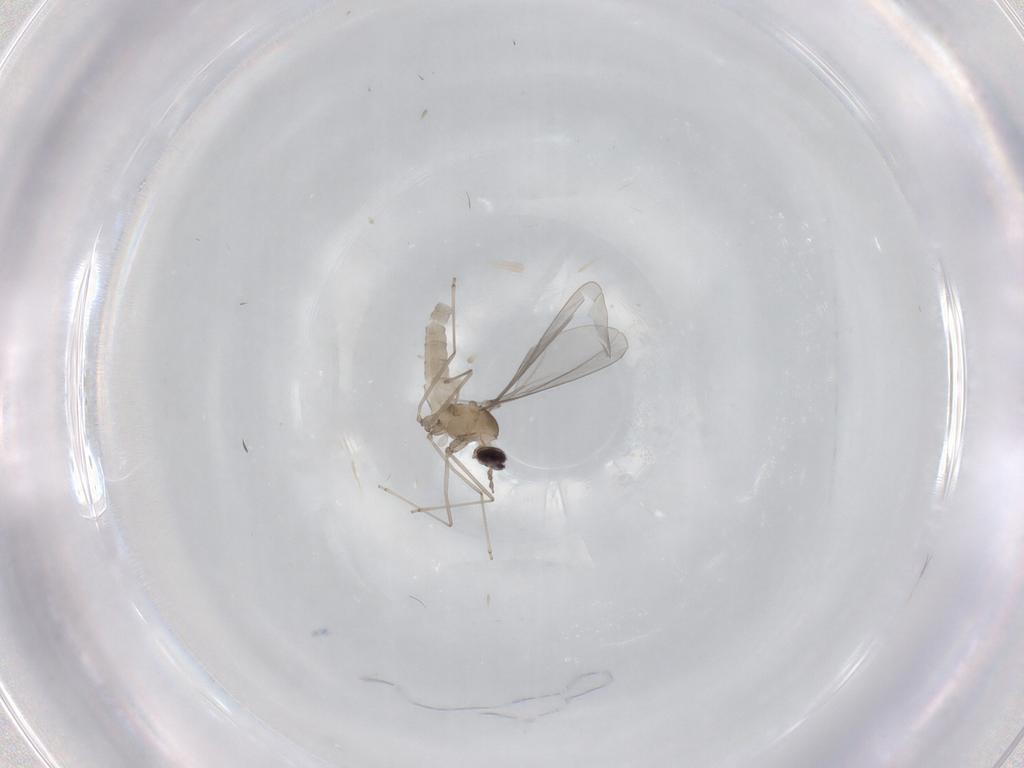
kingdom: Animalia
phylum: Arthropoda
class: Insecta
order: Diptera
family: Phoridae
